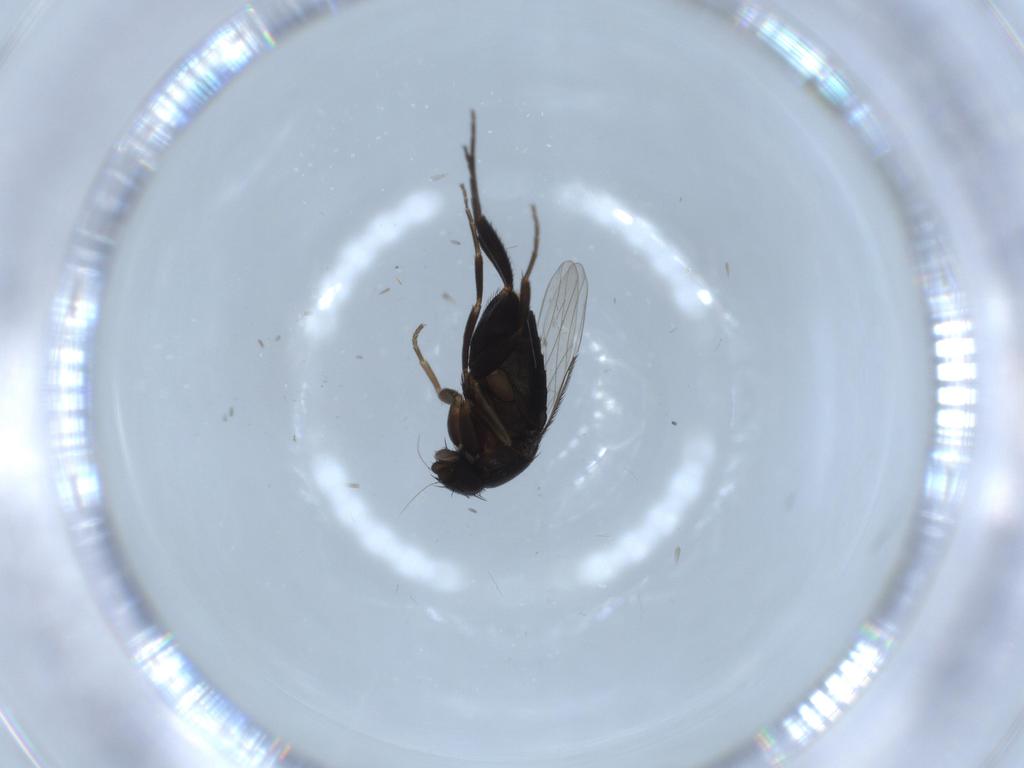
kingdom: Animalia
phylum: Arthropoda
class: Insecta
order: Diptera
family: Phoridae
